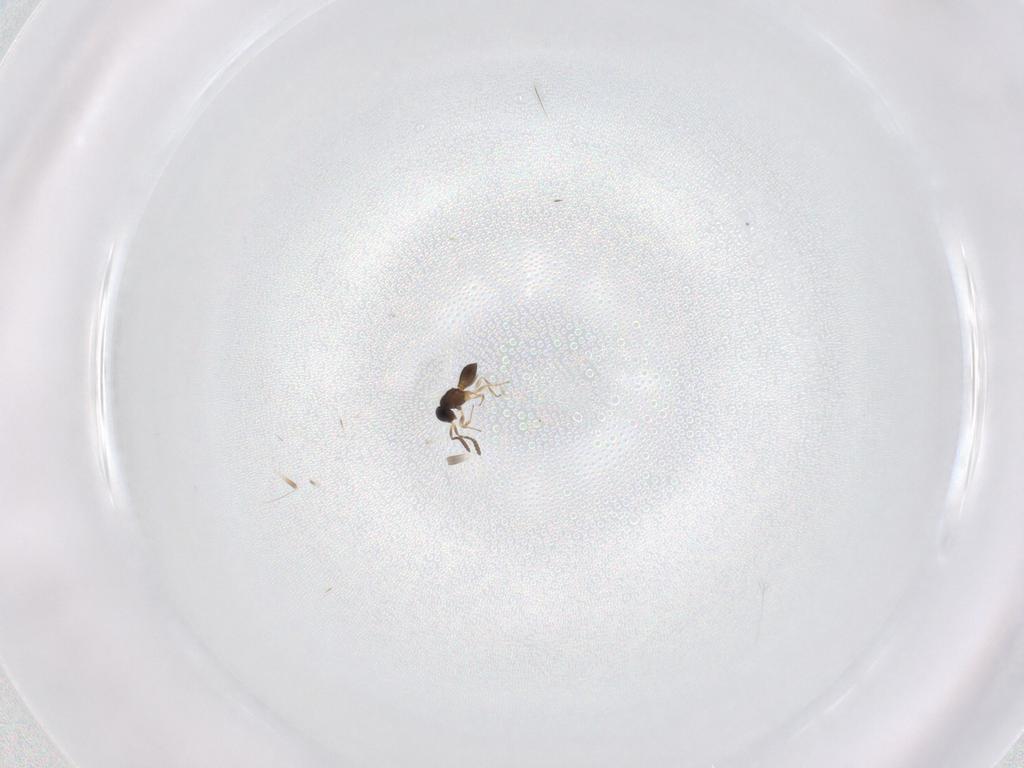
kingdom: Animalia
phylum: Arthropoda
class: Insecta
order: Hymenoptera
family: Scelionidae
